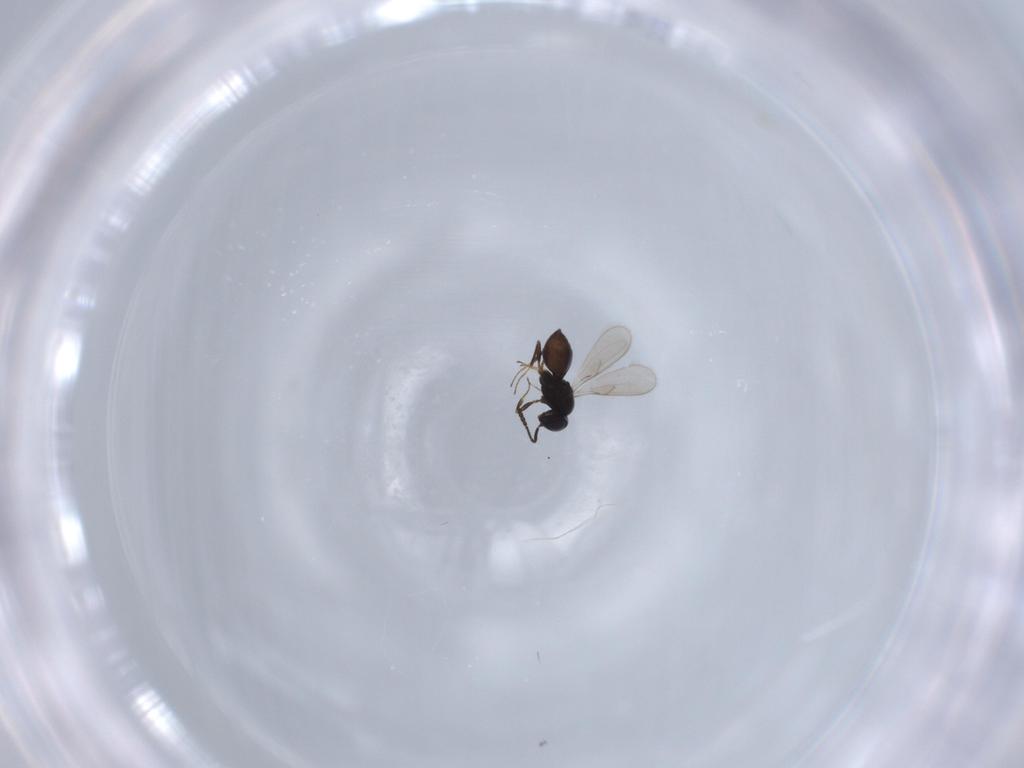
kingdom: Animalia
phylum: Arthropoda
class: Insecta
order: Hymenoptera
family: Scelionidae
